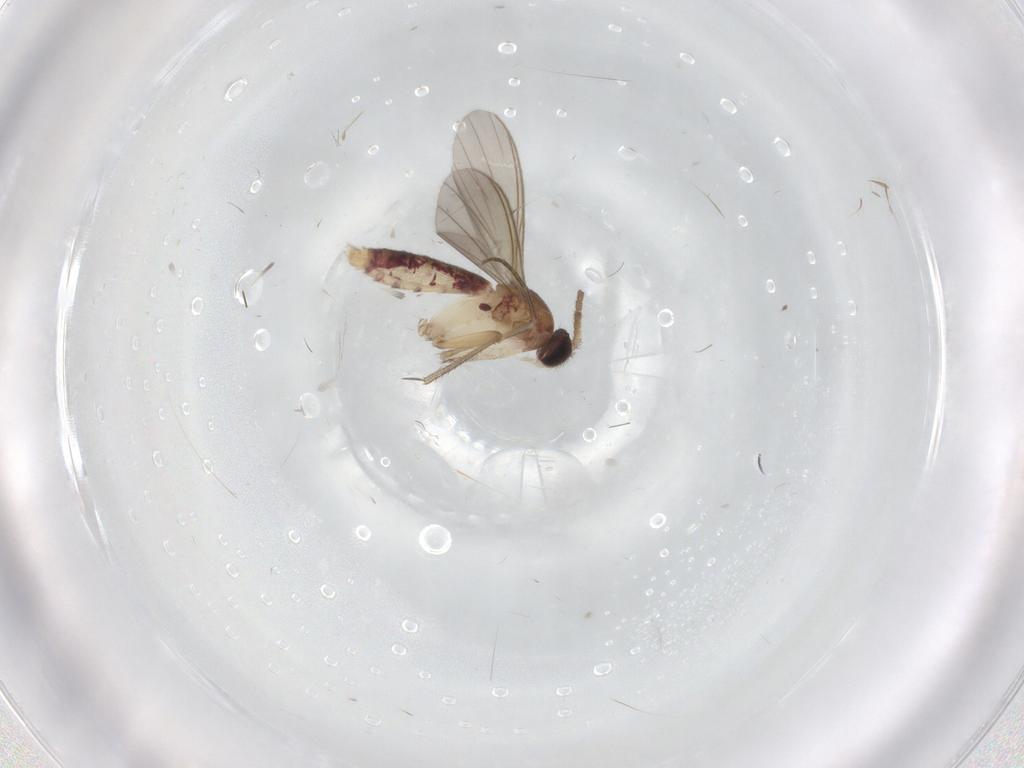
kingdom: Animalia
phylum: Arthropoda
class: Insecta
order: Diptera
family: Mycetophilidae
